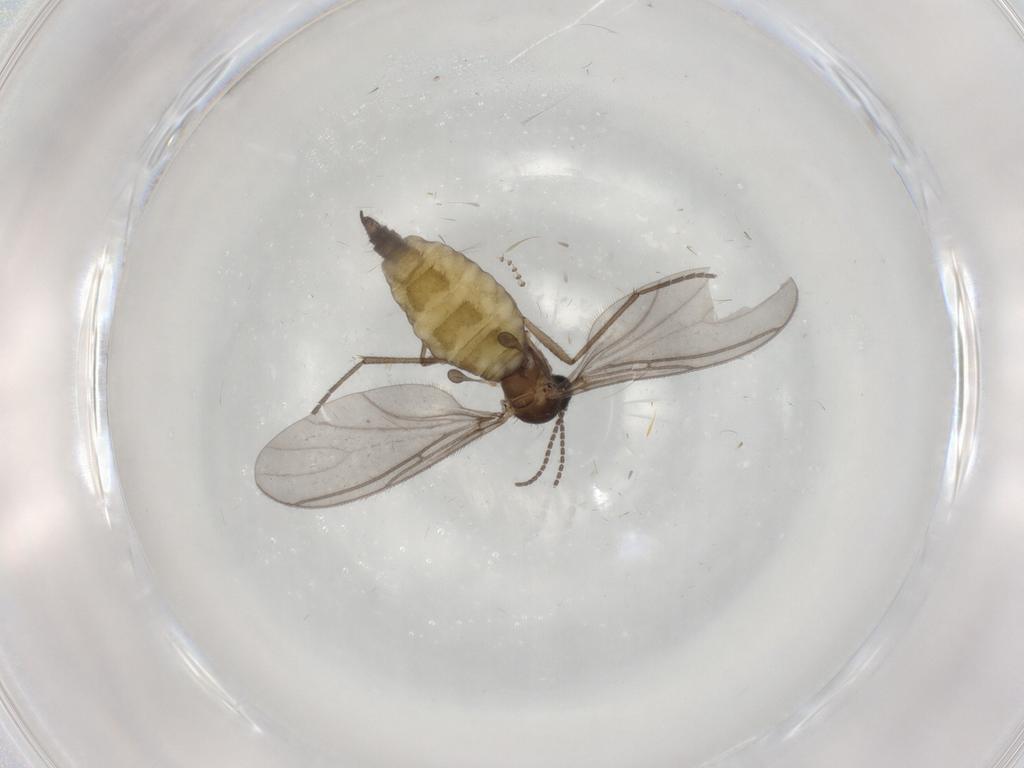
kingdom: Animalia
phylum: Arthropoda
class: Insecta
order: Diptera
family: Sciaridae
